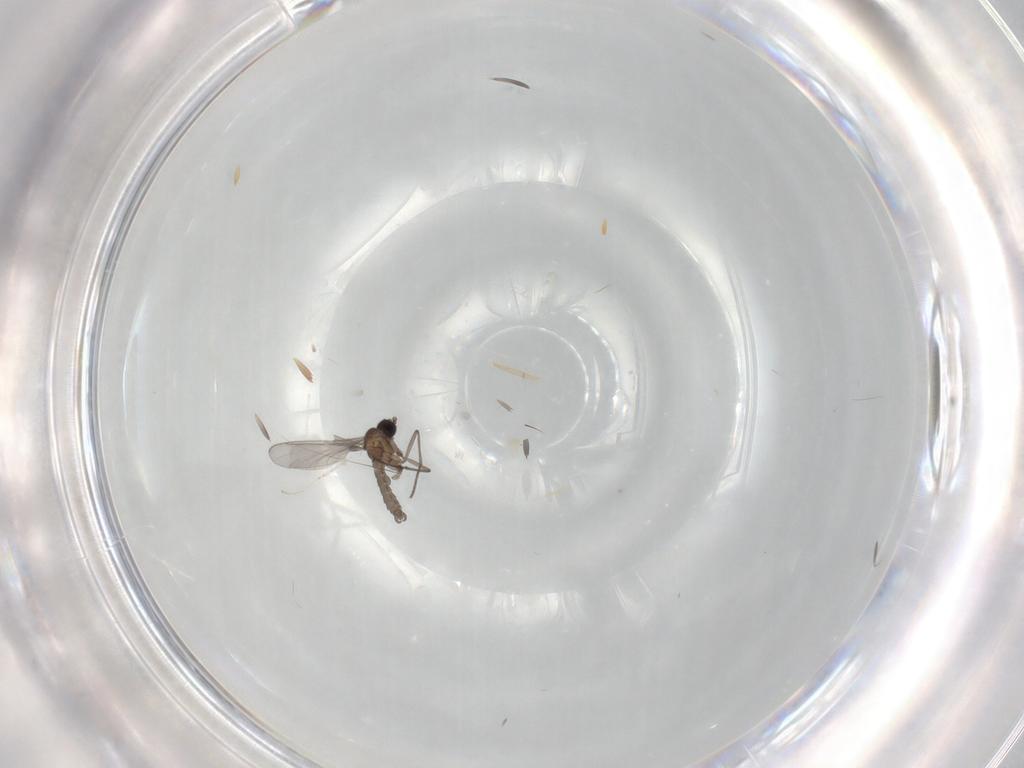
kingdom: Animalia
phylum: Arthropoda
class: Insecta
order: Diptera
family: Sciaridae
